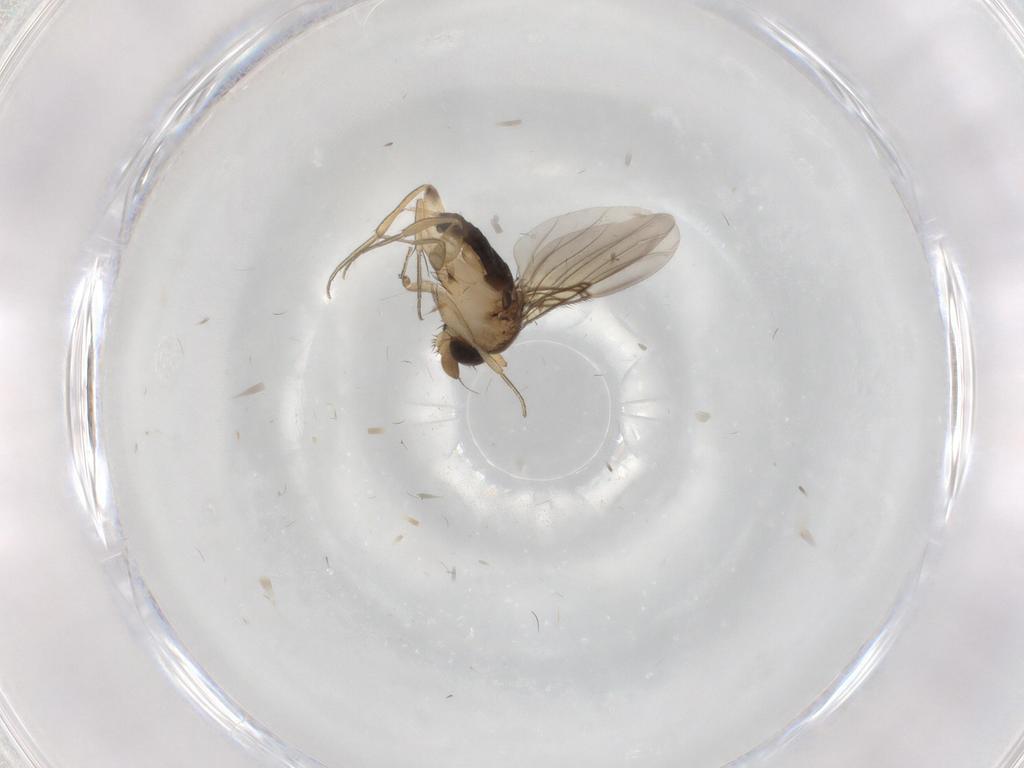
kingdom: Animalia
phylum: Arthropoda
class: Insecta
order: Diptera
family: Phoridae
